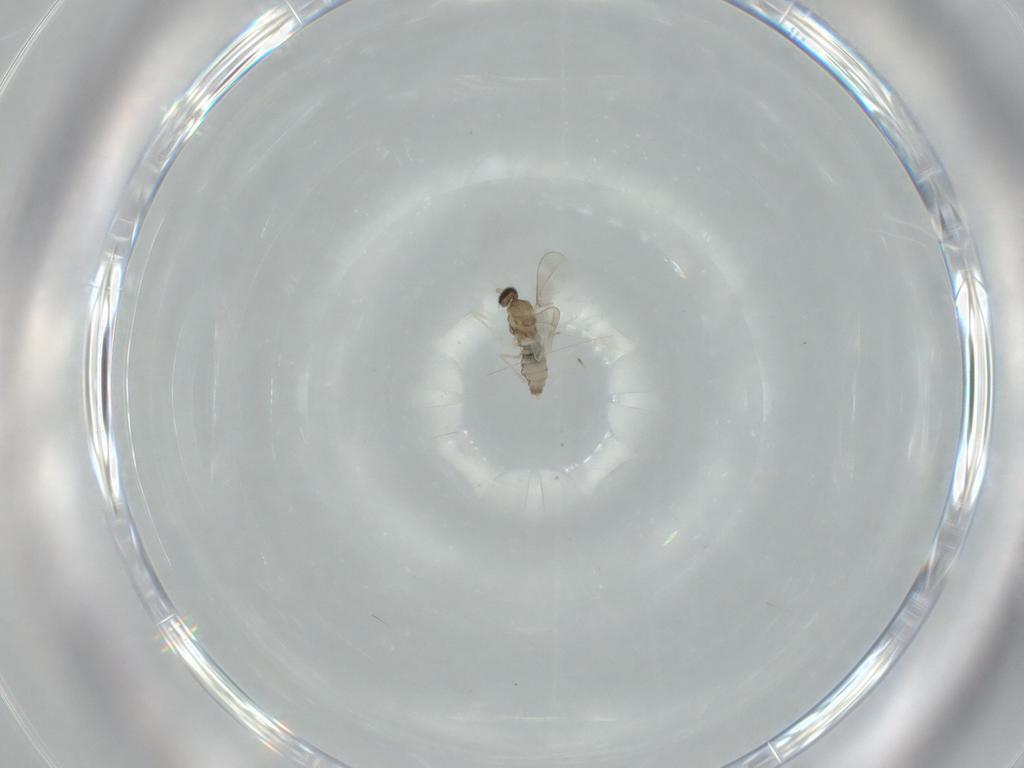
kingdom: Animalia
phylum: Arthropoda
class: Insecta
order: Diptera
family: Cecidomyiidae
